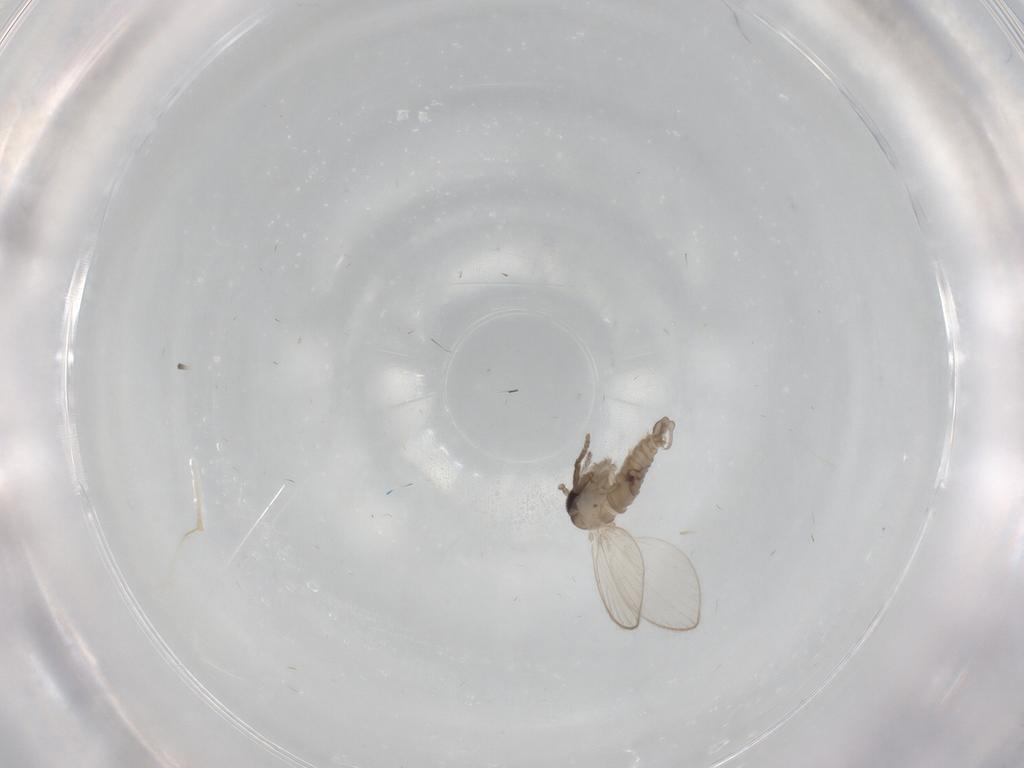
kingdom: Animalia
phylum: Arthropoda
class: Insecta
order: Diptera
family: Psychodidae
